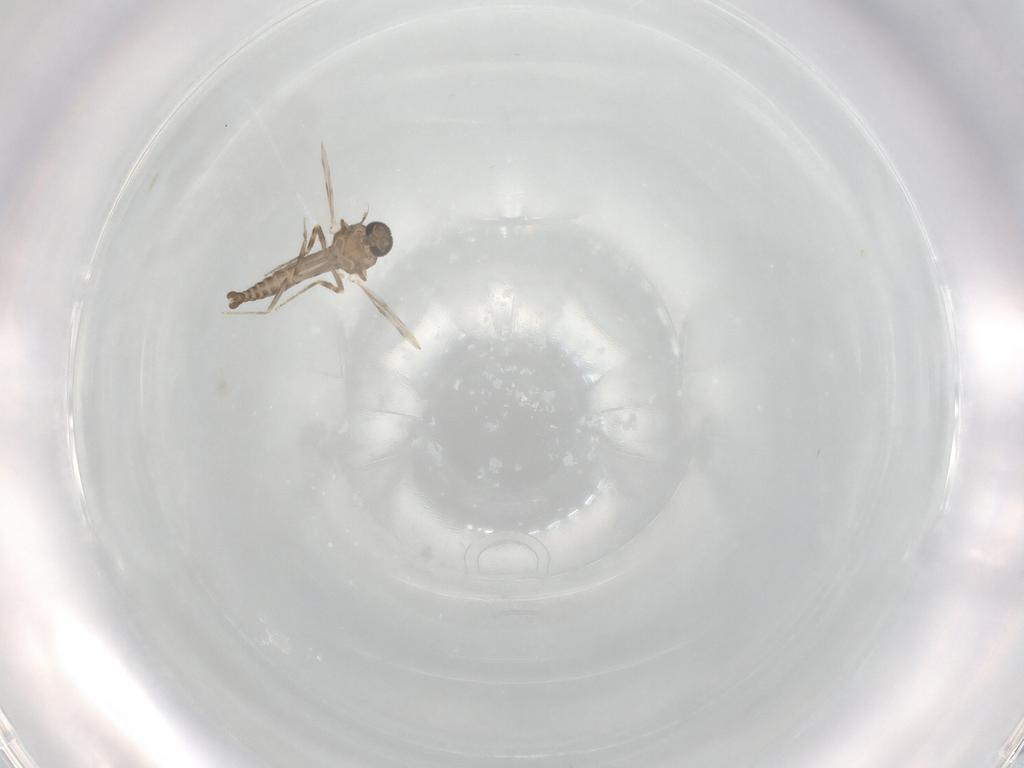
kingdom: Animalia
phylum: Arthropoda
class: Insecta
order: Diptera
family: Ceratopogonidae
